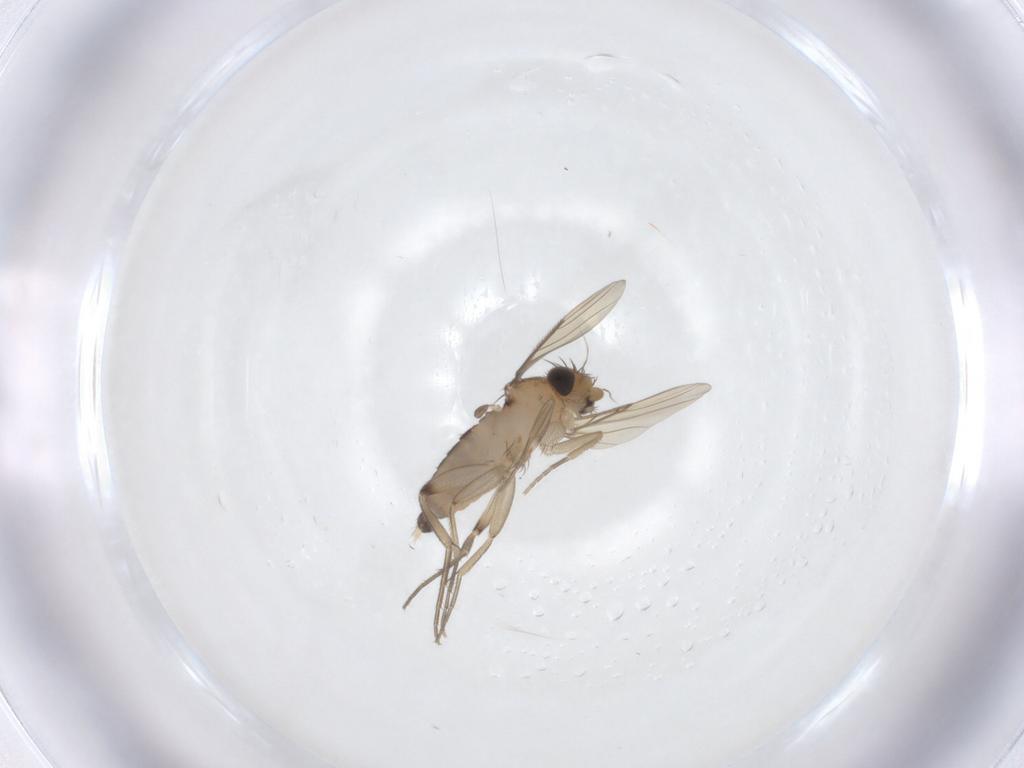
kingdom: Animalia
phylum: Arthropoda
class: Insecta
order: Diptera
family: Phoridae
